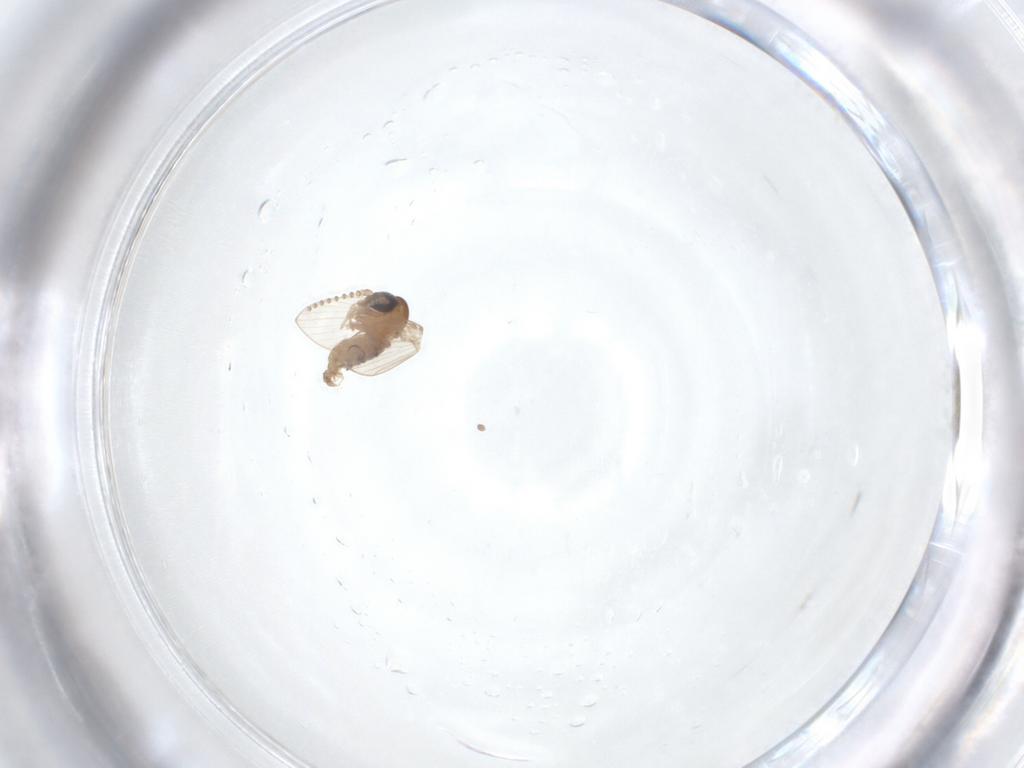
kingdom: Animalia
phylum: Arthropoda
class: Insecta
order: Diptera
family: Psychodidae
